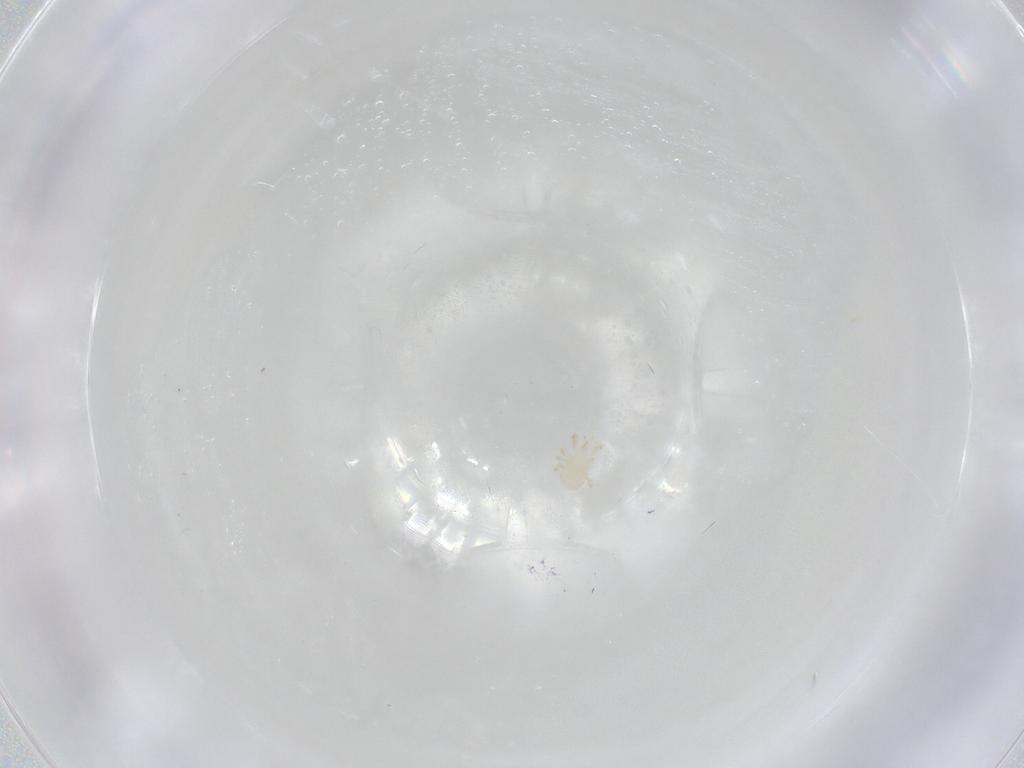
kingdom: Animalia
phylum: Arthropoda
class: Arachnida
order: Mesostigmata
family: Phytoseiidae
